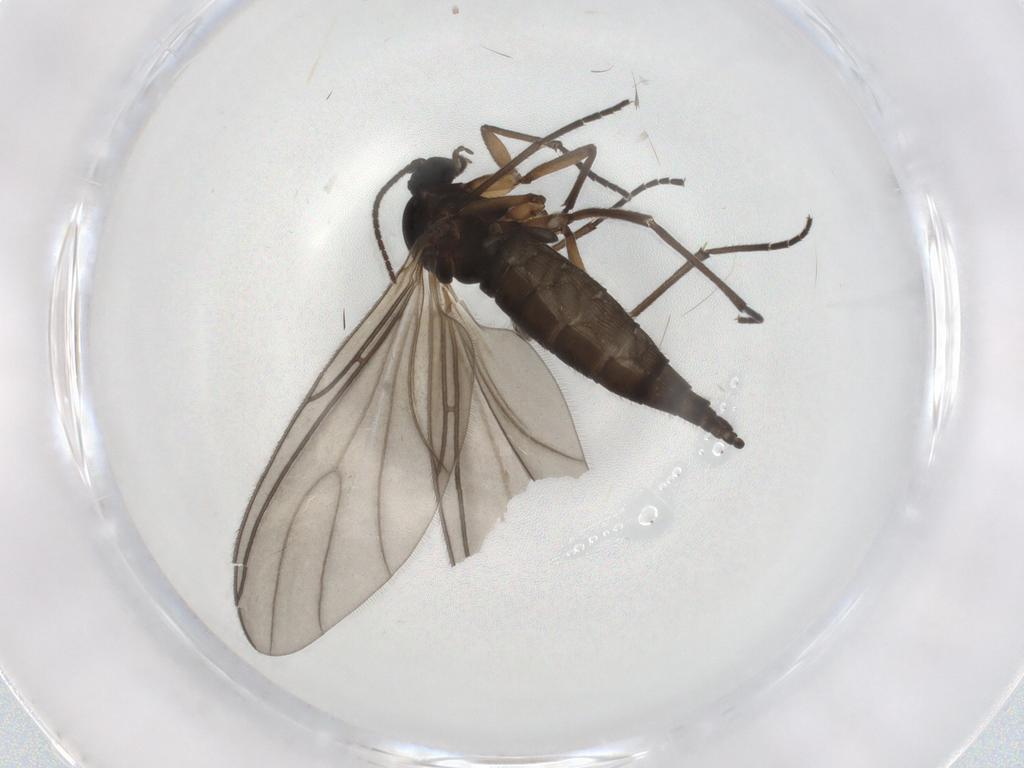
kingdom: Animalia
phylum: Arthropoda
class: Insecta
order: Diptera
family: Sciaridae
